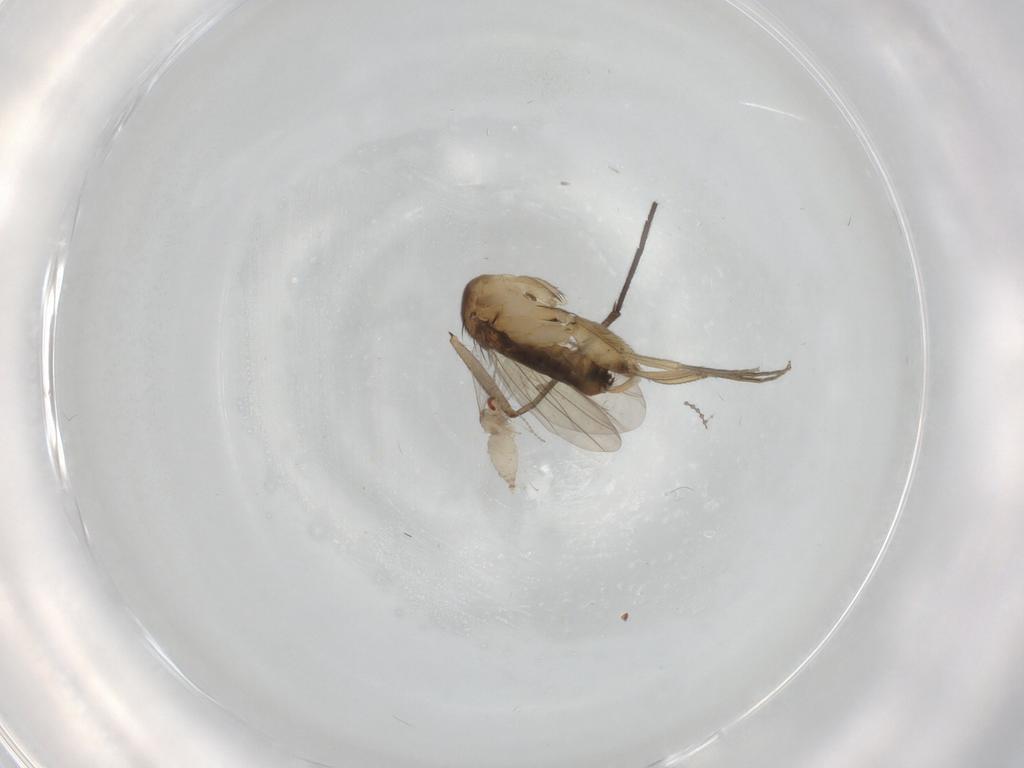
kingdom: Animalia
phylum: Arthropoda
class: Insecta
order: Diptera
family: Phoridae
